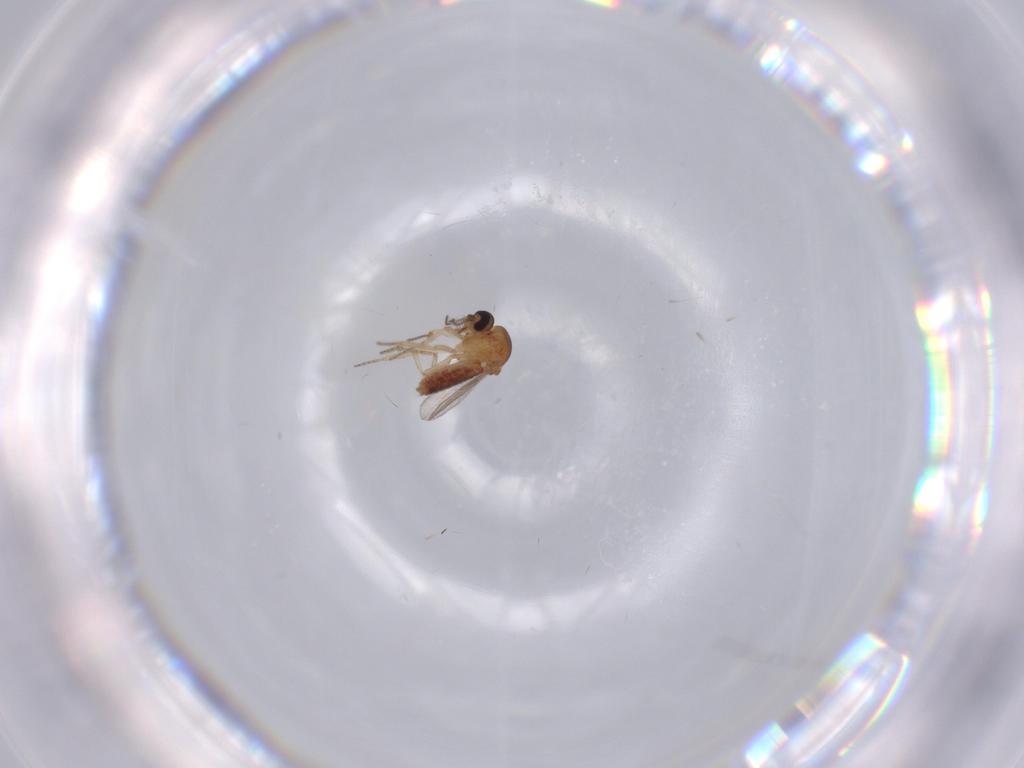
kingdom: Animalia
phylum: Arthropoda
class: Insecta
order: Diptera
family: Ceratopogonidae
